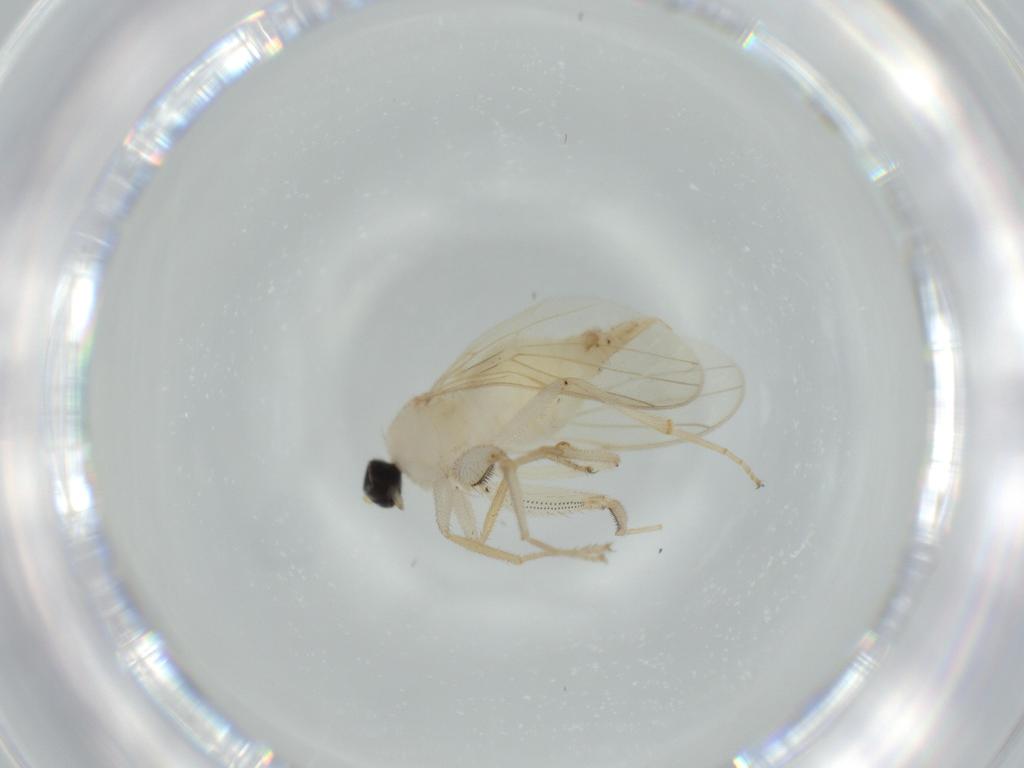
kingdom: Animalia
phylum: Arthropoda
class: Insecta
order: Diptera
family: Hybotidae
